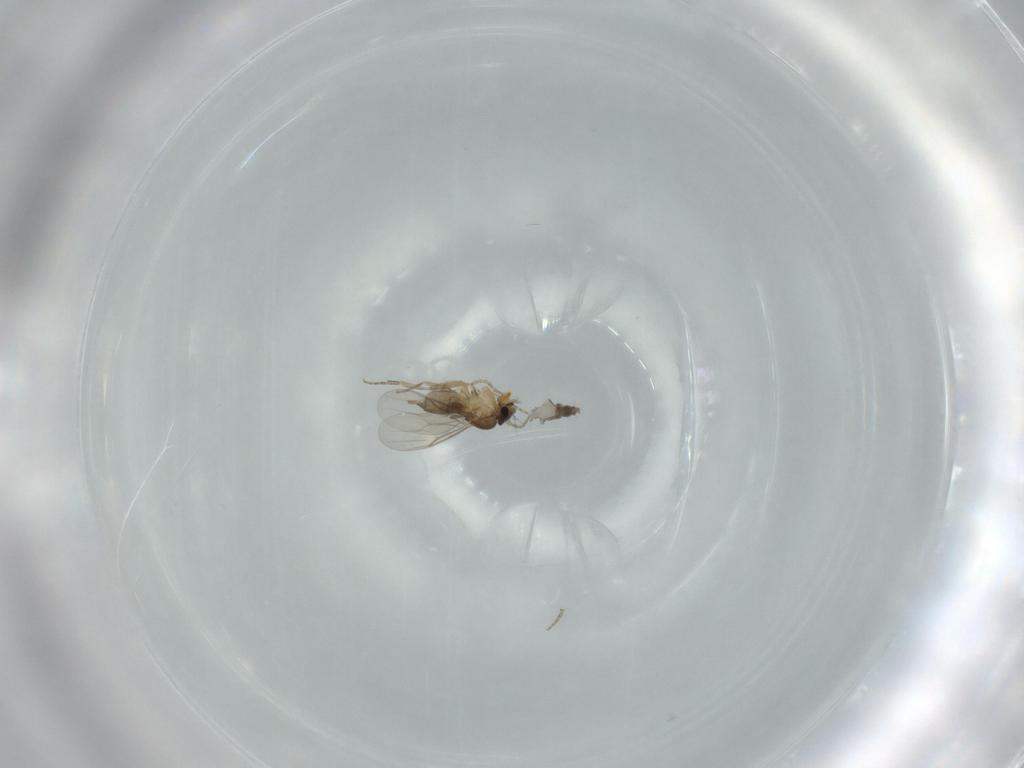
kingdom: Animalia
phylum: Arthropoda
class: Insecta
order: Diptera
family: Phoridae
